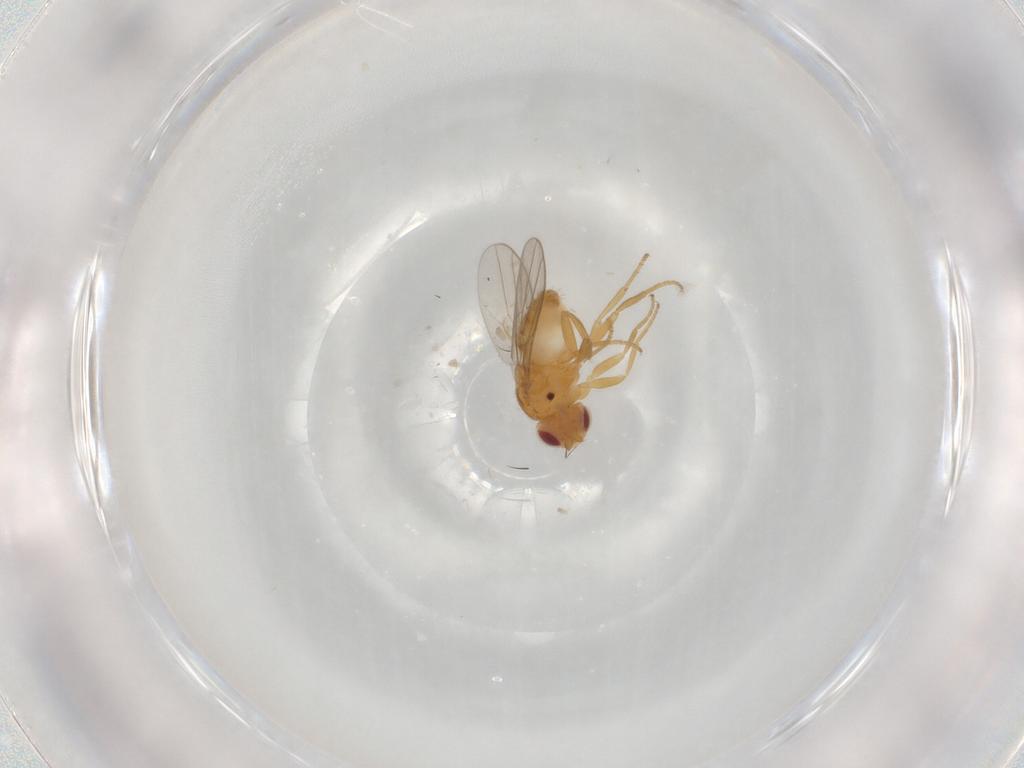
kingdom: Animalia
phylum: Arthropoda
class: Insecta
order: Diptera
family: Chloropidae
